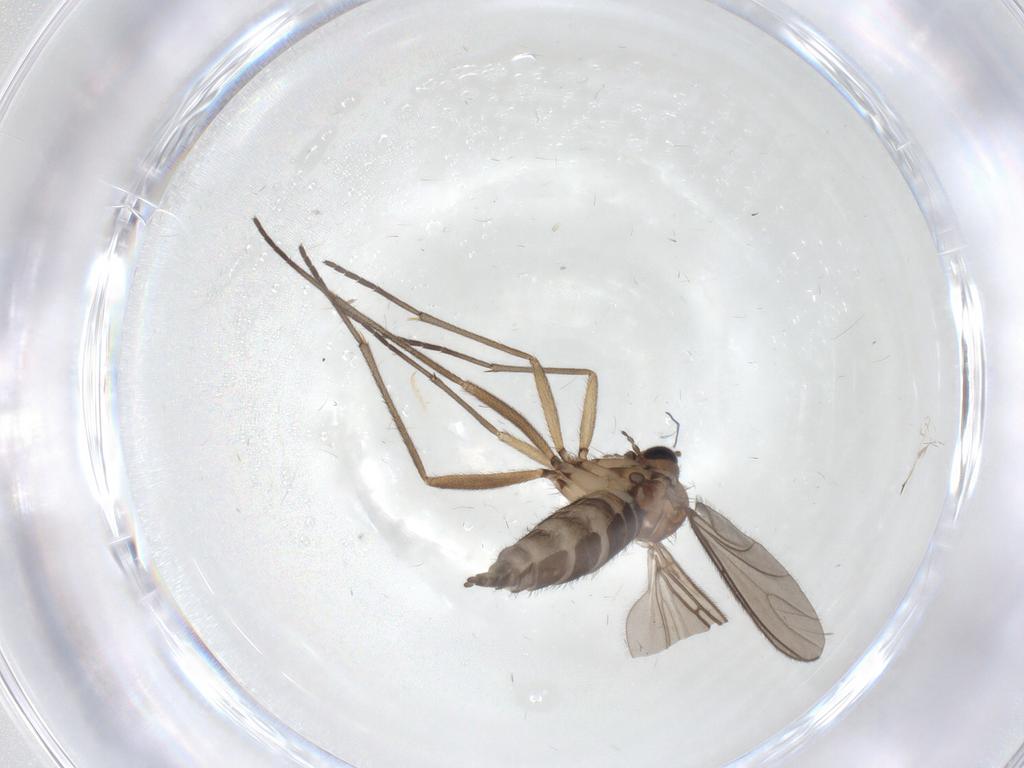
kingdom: Animalia
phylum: Arthropoda
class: Insecta
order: Diptera
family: Sciaridae
